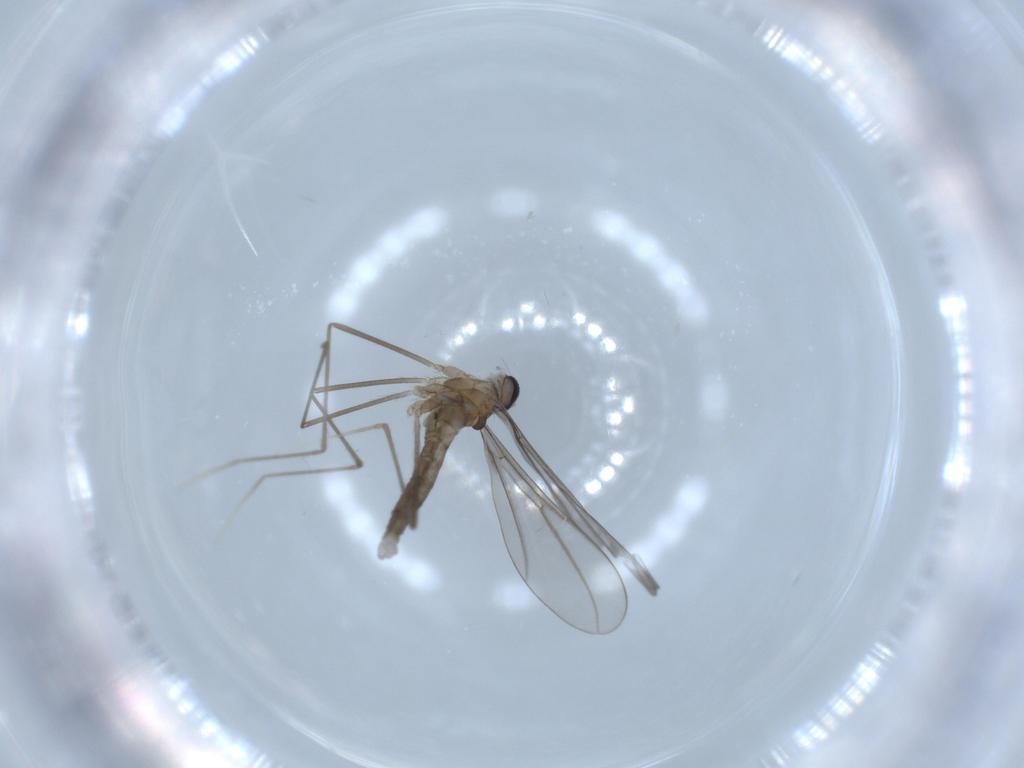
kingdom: Animalia
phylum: Arthropoda
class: Insecta
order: Diptera
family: Cecidomyiidae
